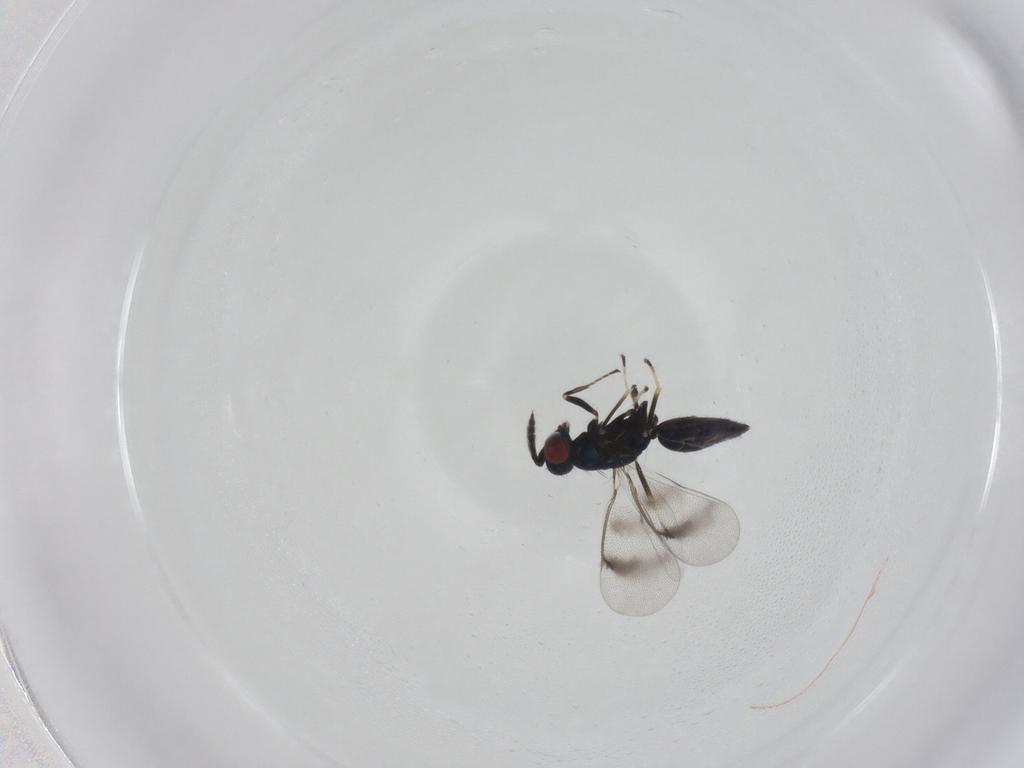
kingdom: Animalia
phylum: Arthropoda
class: Insecta
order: Hymenoptera
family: Eulophidae
